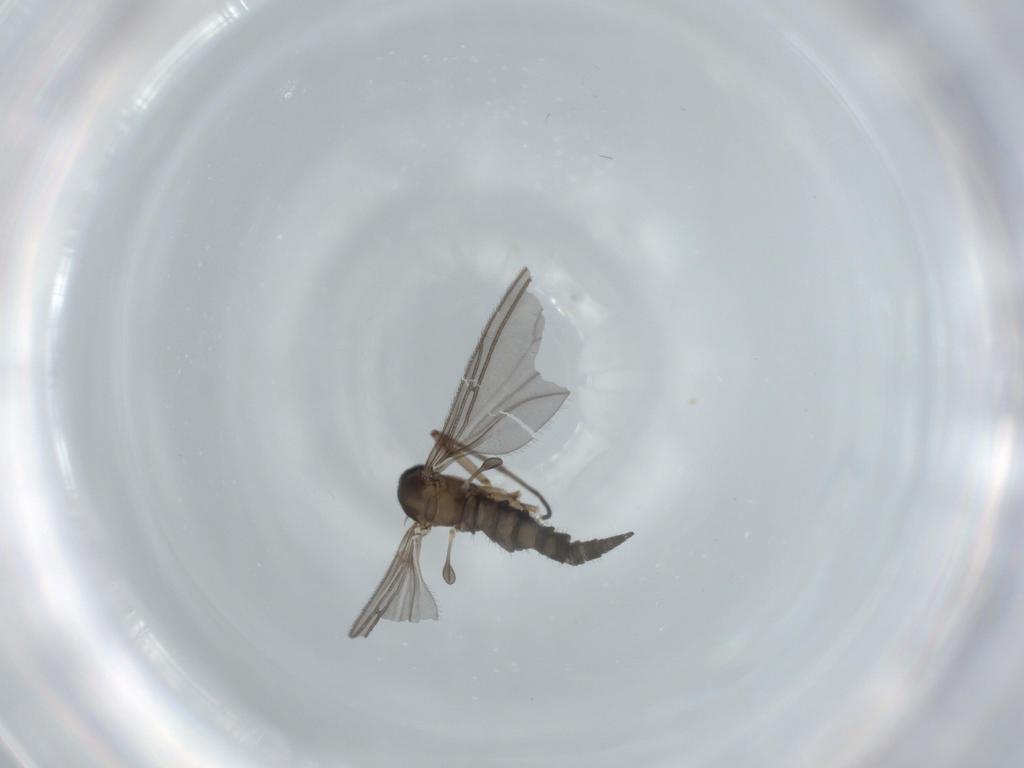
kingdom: Animalia
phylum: Arthropoda
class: Insecta
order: Diptera
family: Sciaridae
